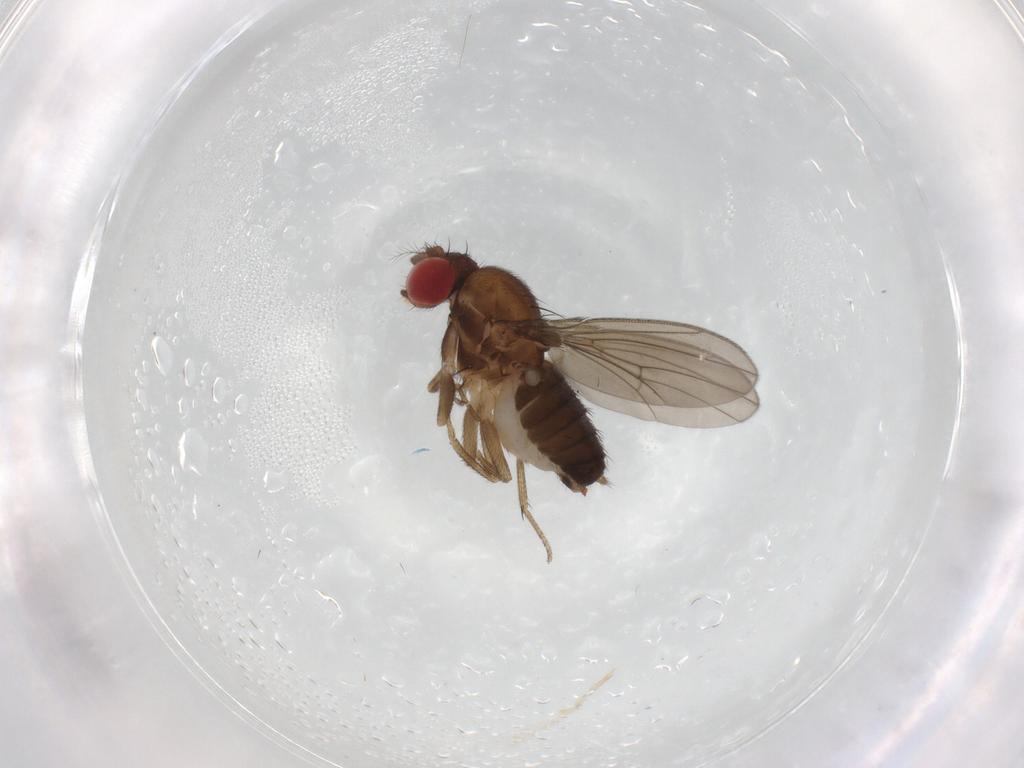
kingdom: Animalia
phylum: Arthropoda
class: Insecta
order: Diptera
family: Drosophilidae
